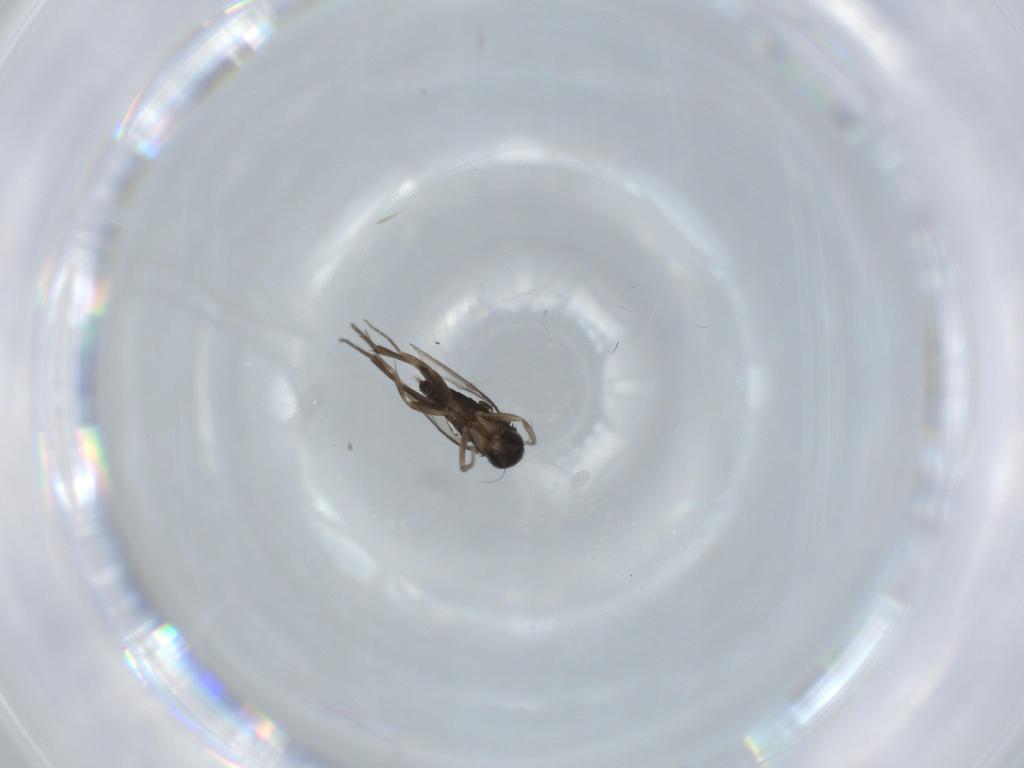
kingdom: Animalia
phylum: Arthropoda
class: Insecta
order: Diptera
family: Phoridae
